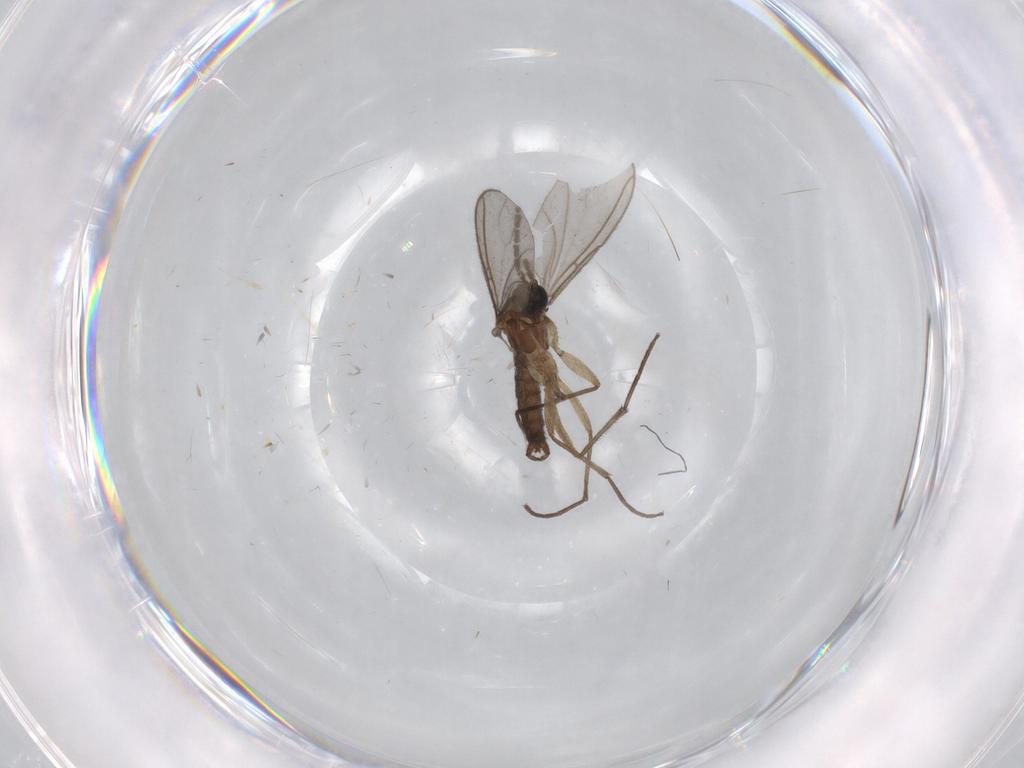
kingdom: Animalia
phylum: Arthropoda
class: Insecta
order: Diptera
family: Cecidomyiidae
